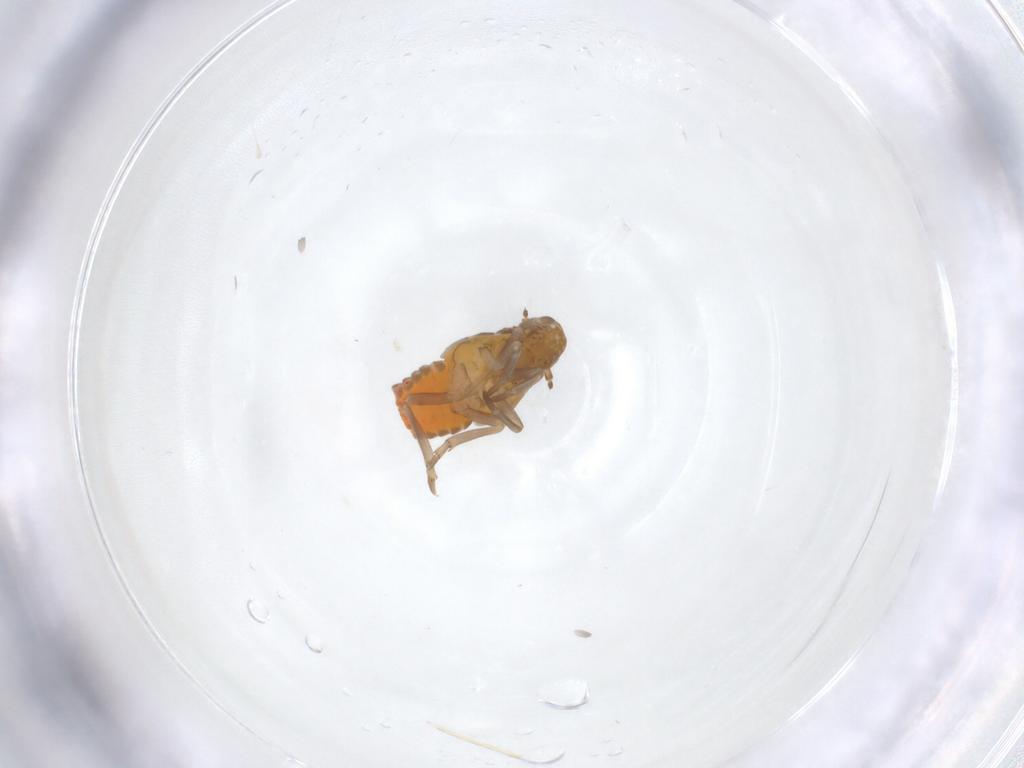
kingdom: Animalia
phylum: Arthropoda
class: Insecta
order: Hemiptera
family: Flatidae
